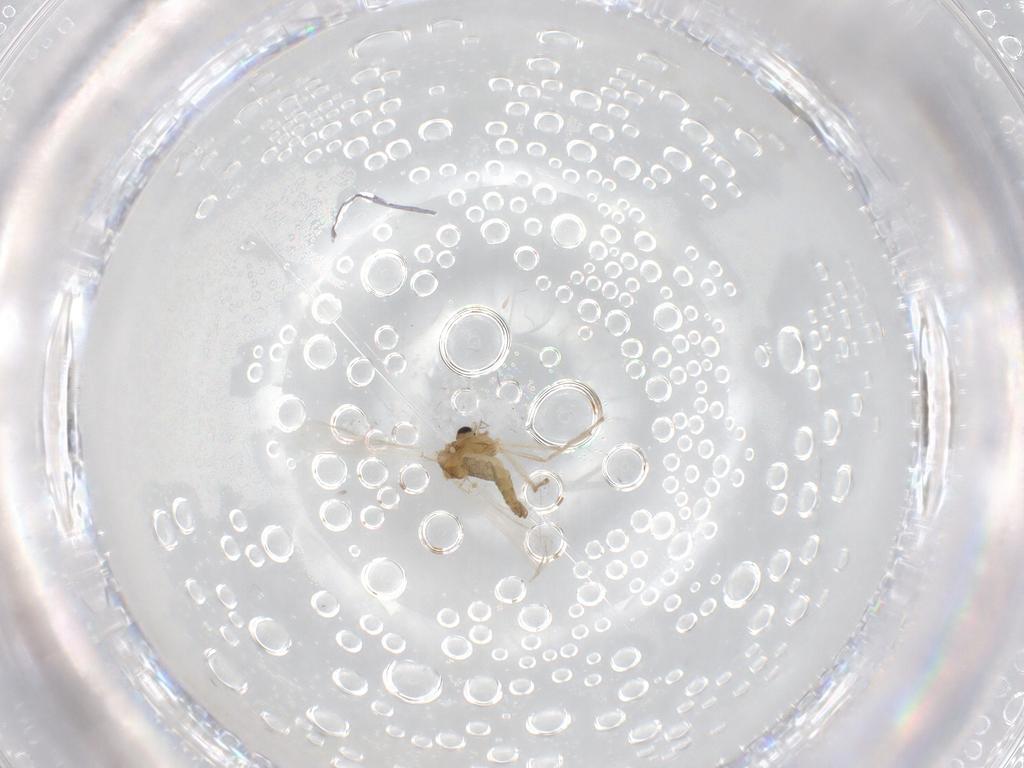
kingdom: Animalia
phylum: Arthropoda
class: Insecta
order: Diptera
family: Chironomidae
